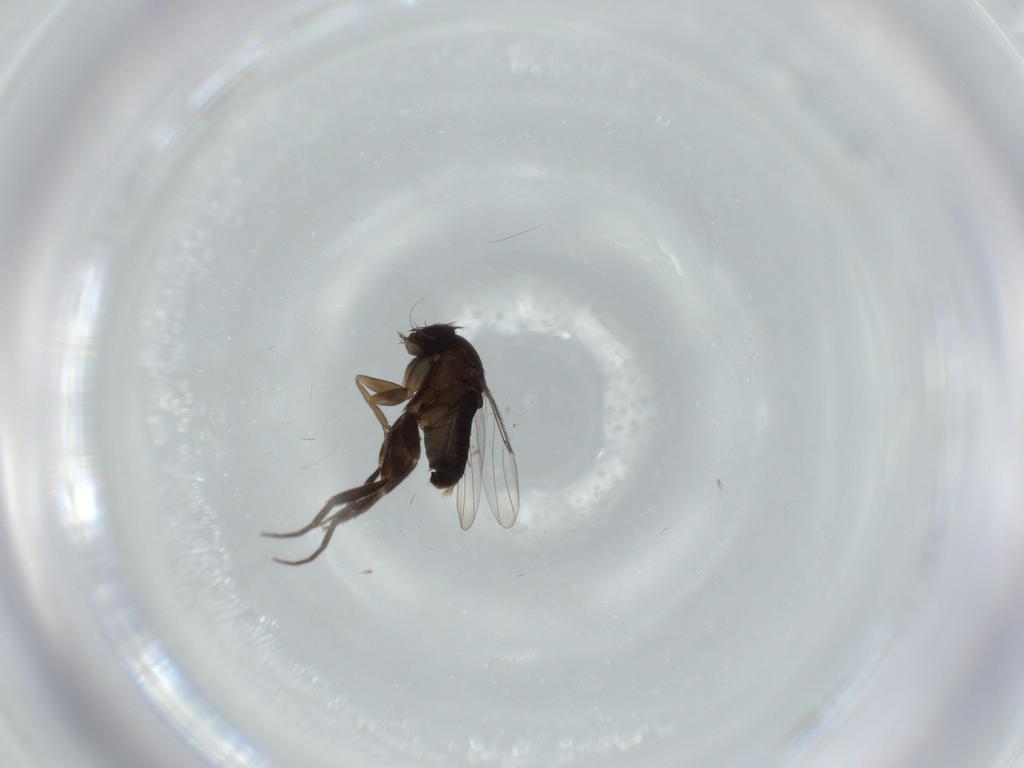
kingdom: Animalia
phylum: Arthropoda
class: Insecta
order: Diptera
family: Phoridae
